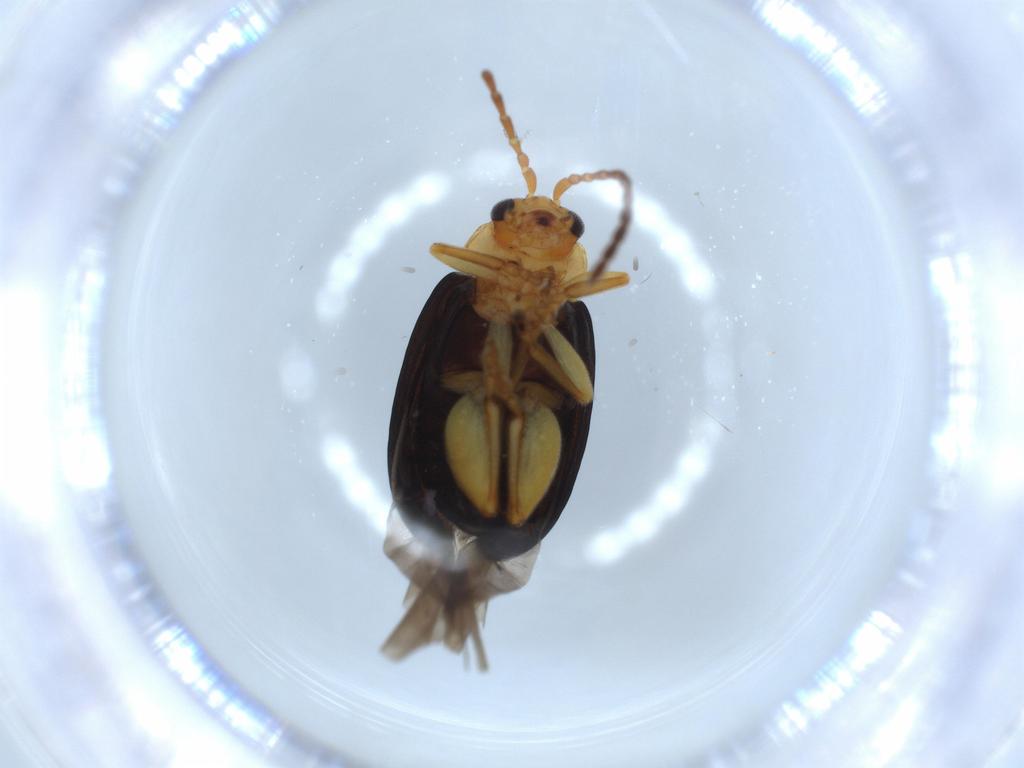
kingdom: Animalia
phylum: Arthropoda
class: Insecta
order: Coleoptera
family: Chrysomelidae
